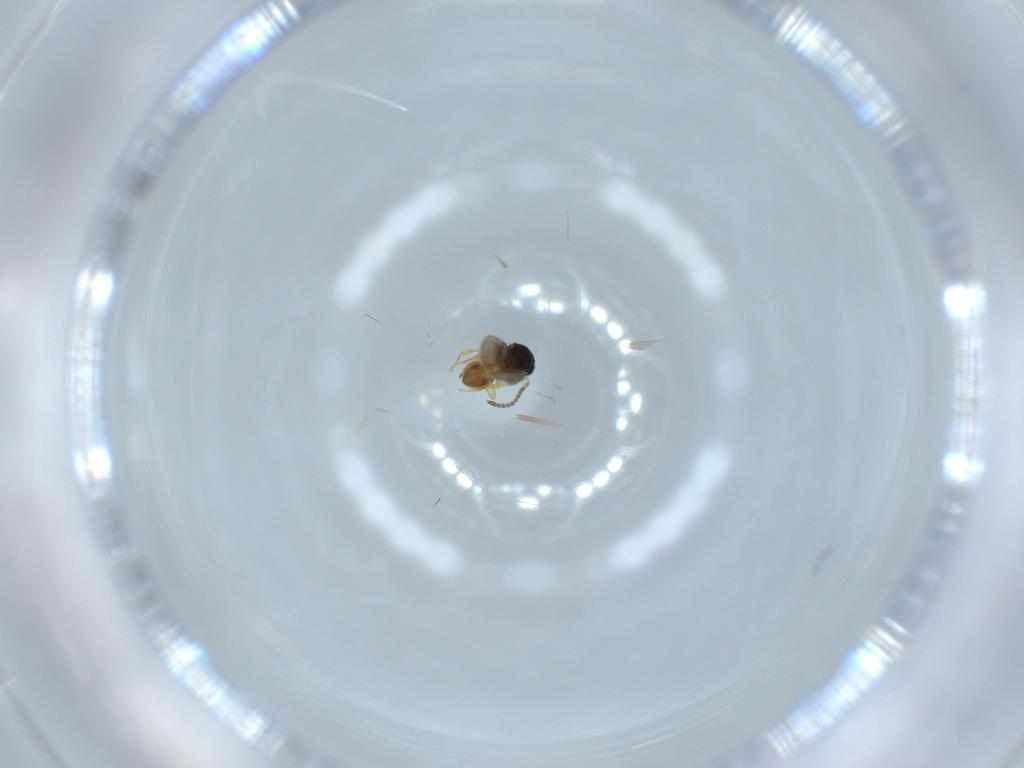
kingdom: Animalia
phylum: Arthropoda
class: Insecta
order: Hymenoptera
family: Scelionidae
